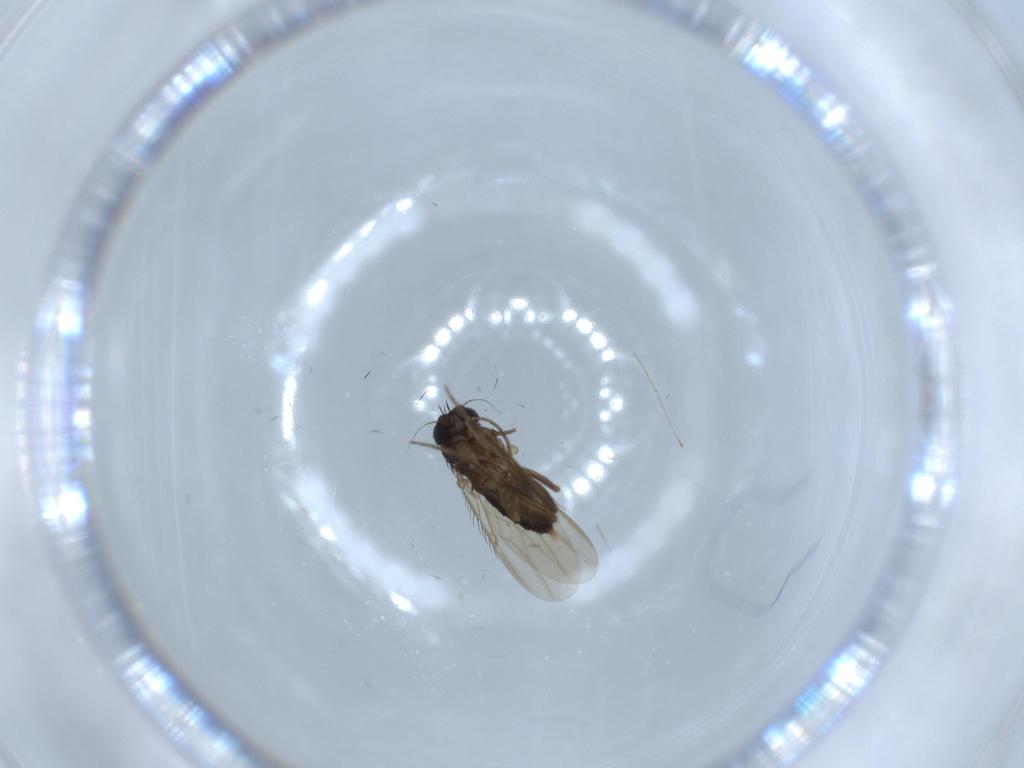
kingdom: Animalia
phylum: Arthropoda
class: Insecta
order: Diptera
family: Phoridae
